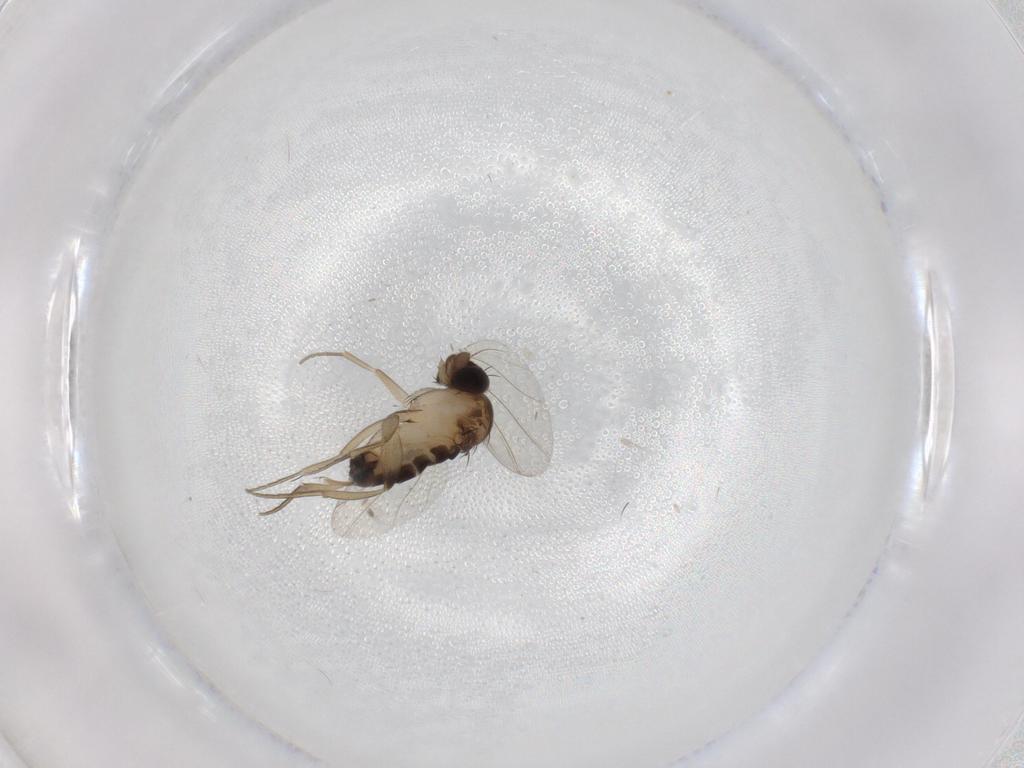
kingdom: Animalia
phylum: Arthropoda
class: Insecta
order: Diptera
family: Phoridae
